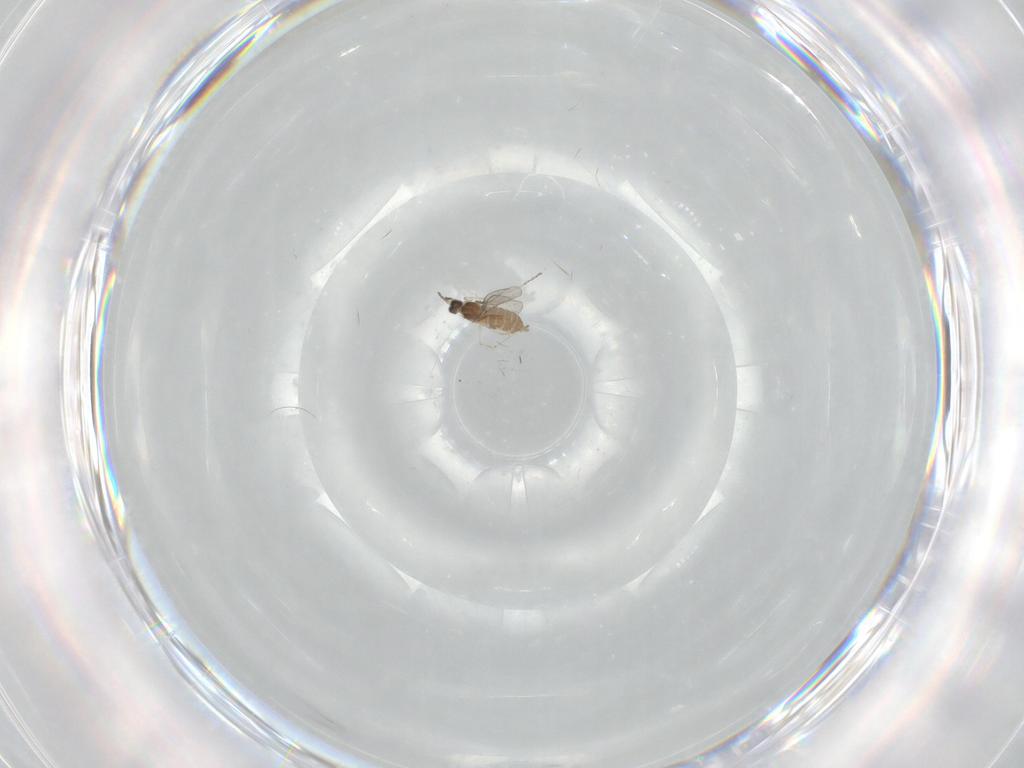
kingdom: Animalia
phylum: Arthropoda
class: Insecta
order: Diptera
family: Cecidomyiidae
